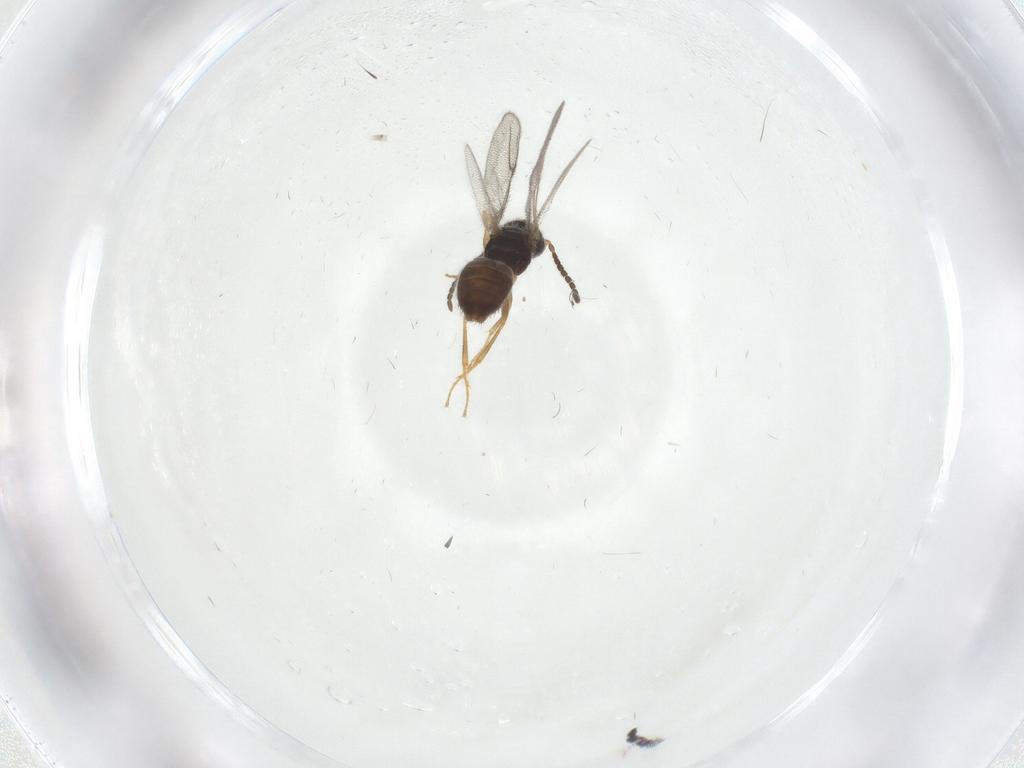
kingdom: Animalia
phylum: Arthropoda
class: Insecta
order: Hymenoptera
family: Bethylidae
